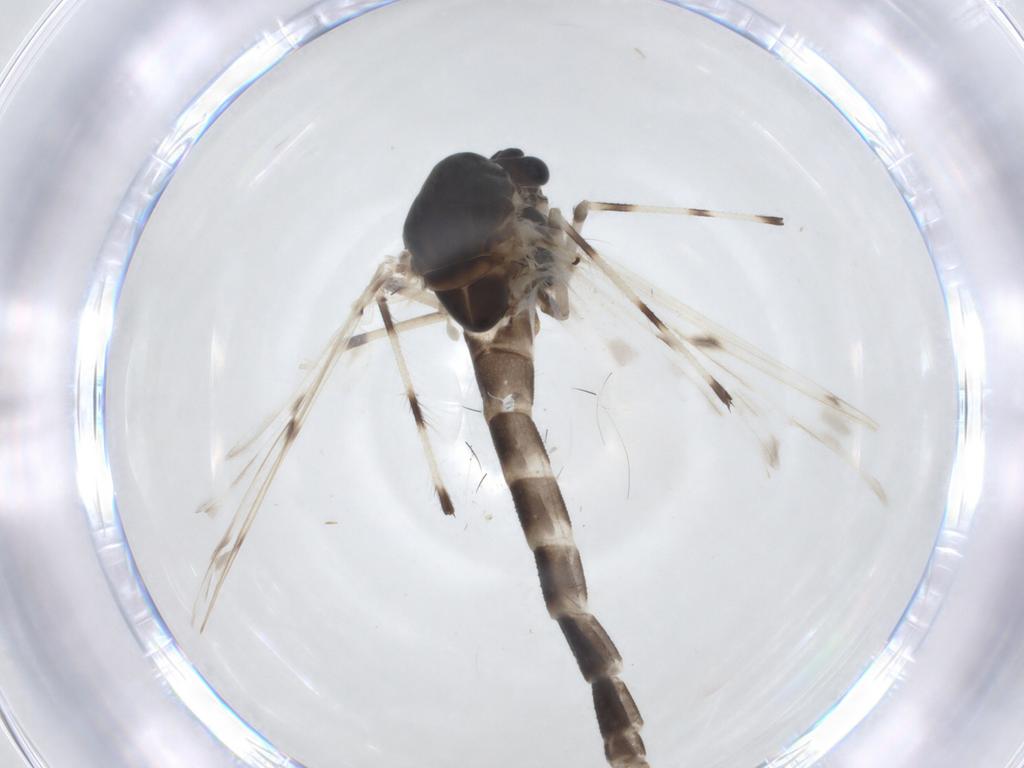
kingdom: Animalia
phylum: Arthropoda
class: Insecta
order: Diptera
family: Chironomidae
